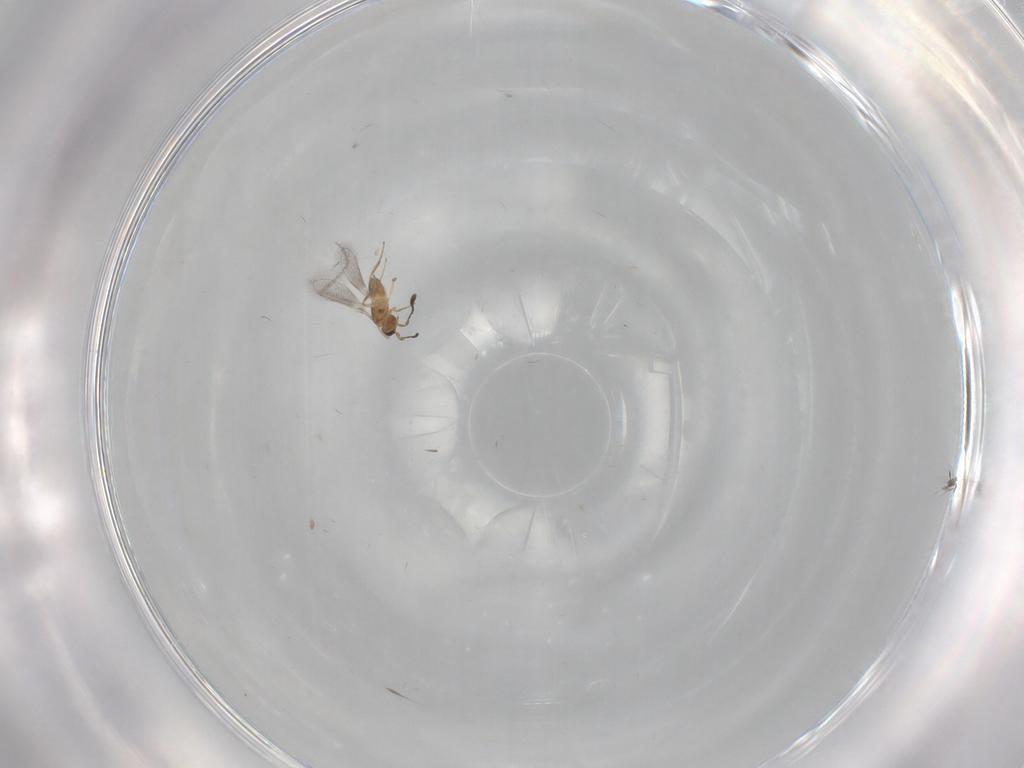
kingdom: Animalia
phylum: Arthropoda
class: Insecta
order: Hymenoptera
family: Mymaridae
